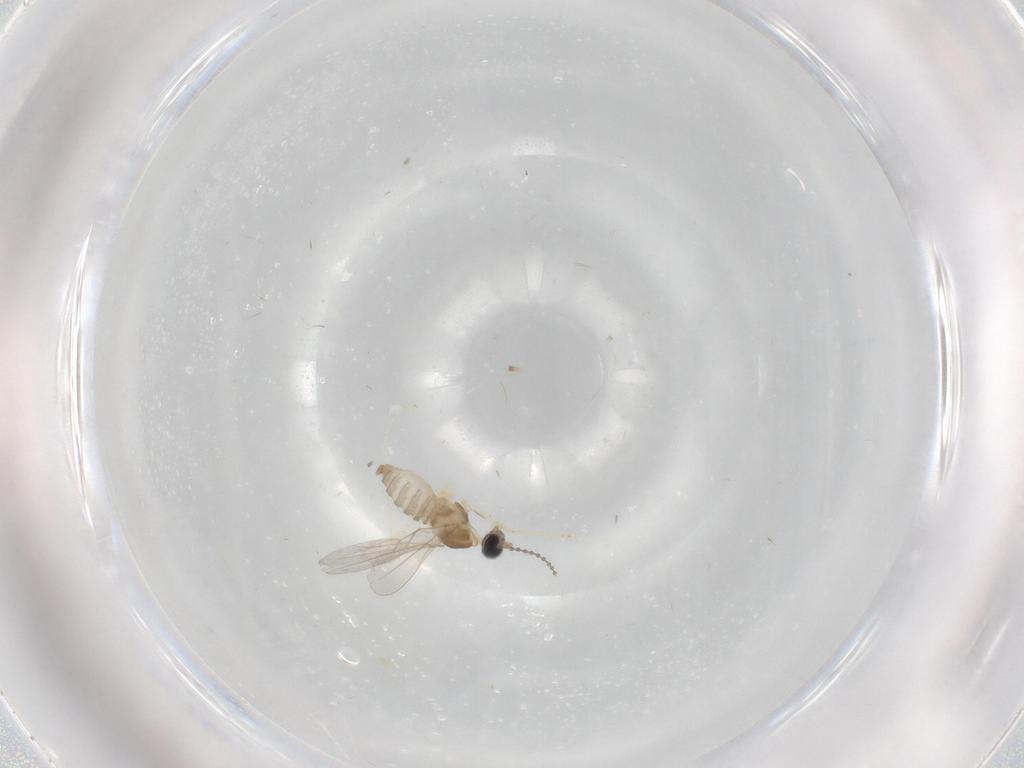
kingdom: Animalia
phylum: Arthropoda
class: Insecta
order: Diptera
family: Cecidomyiidae
